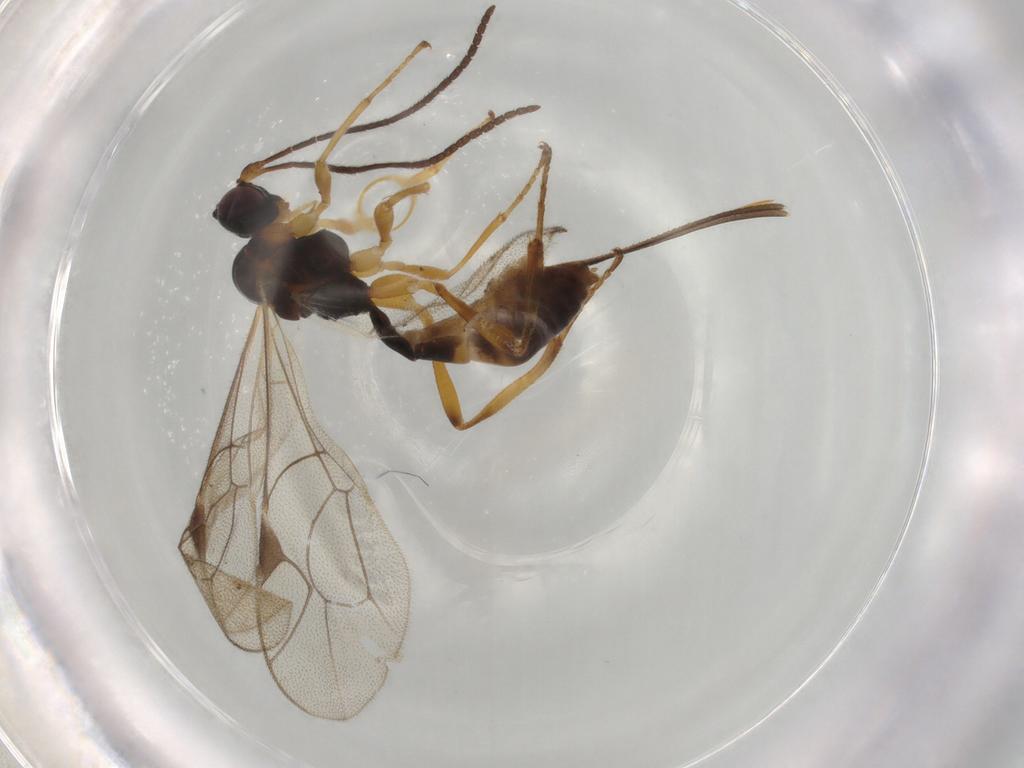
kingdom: Animalia
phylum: Arthropoda
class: Insecta
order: Hymenoptera
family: Ichneumonidae
